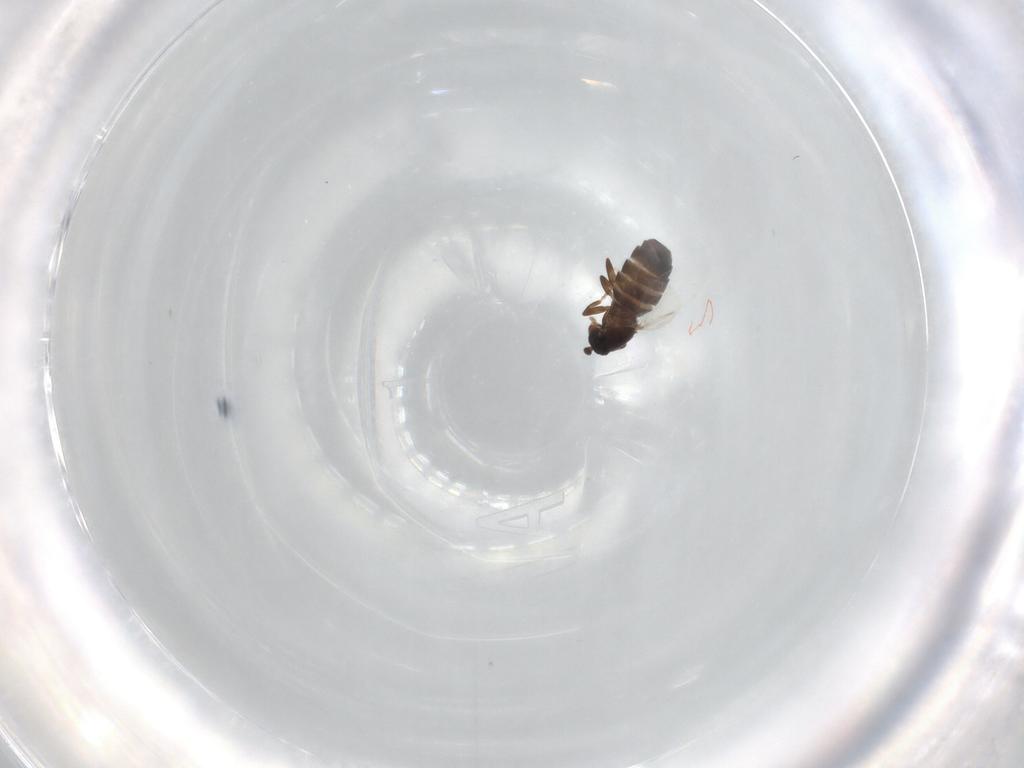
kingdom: Animalia
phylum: Arthropoda
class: Insecta
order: Diptera
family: Scatopsidae
